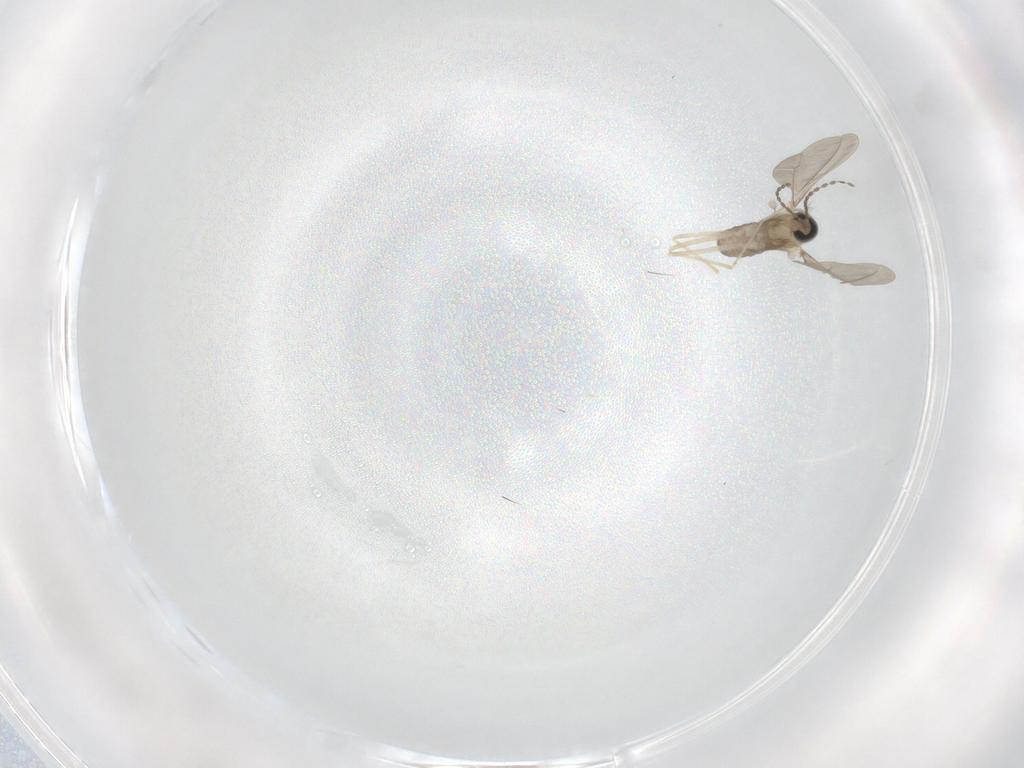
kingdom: Animalia
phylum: Arthropoda
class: Insecta
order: Diptera
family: Cecidomyiidae
